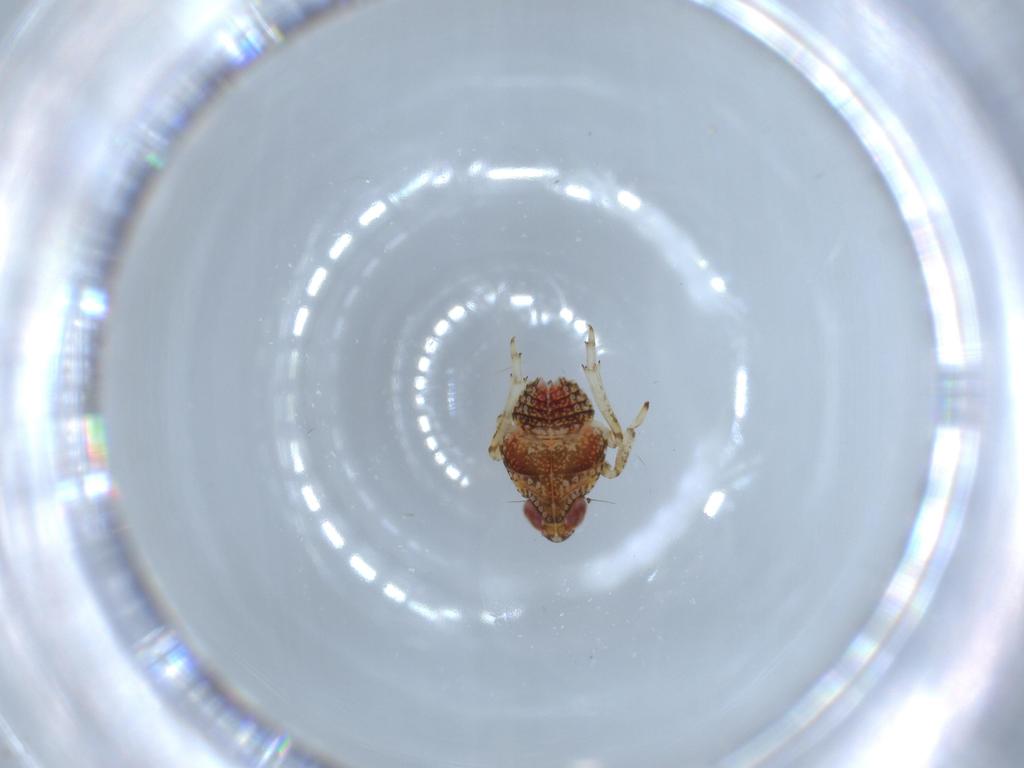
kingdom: Animalia
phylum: Arthropoda
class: Insecta
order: Hemiptera
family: Issidae
